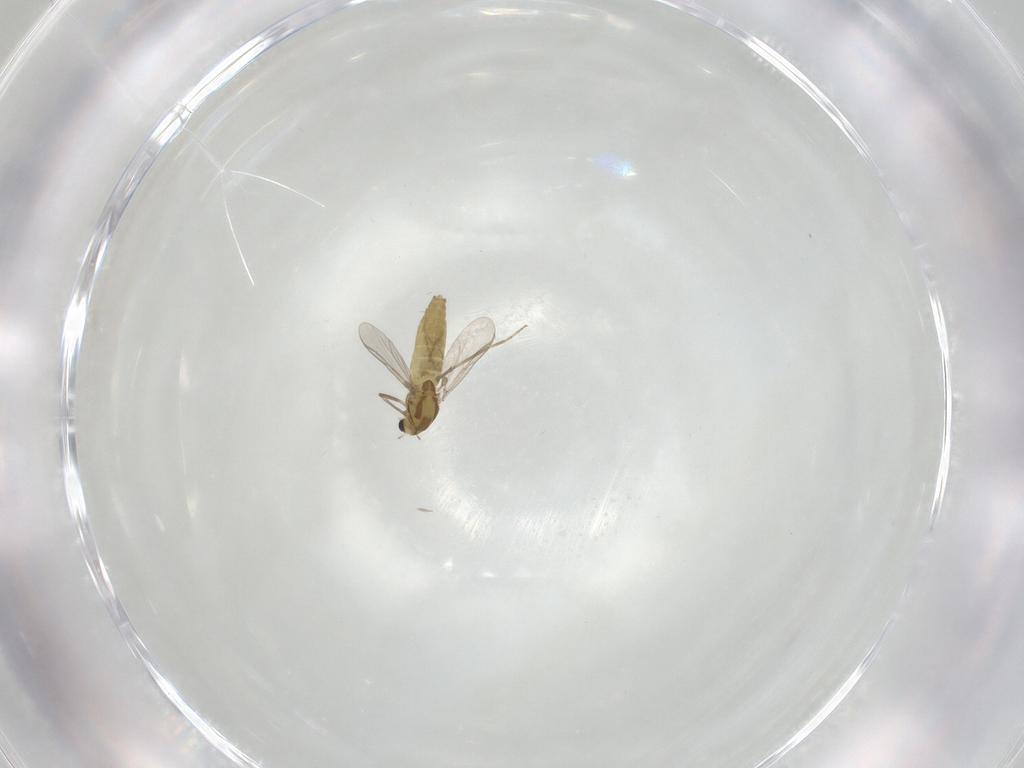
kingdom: Animalia
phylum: Arthropoda
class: Insecta
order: Diptera
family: Chironomidae
